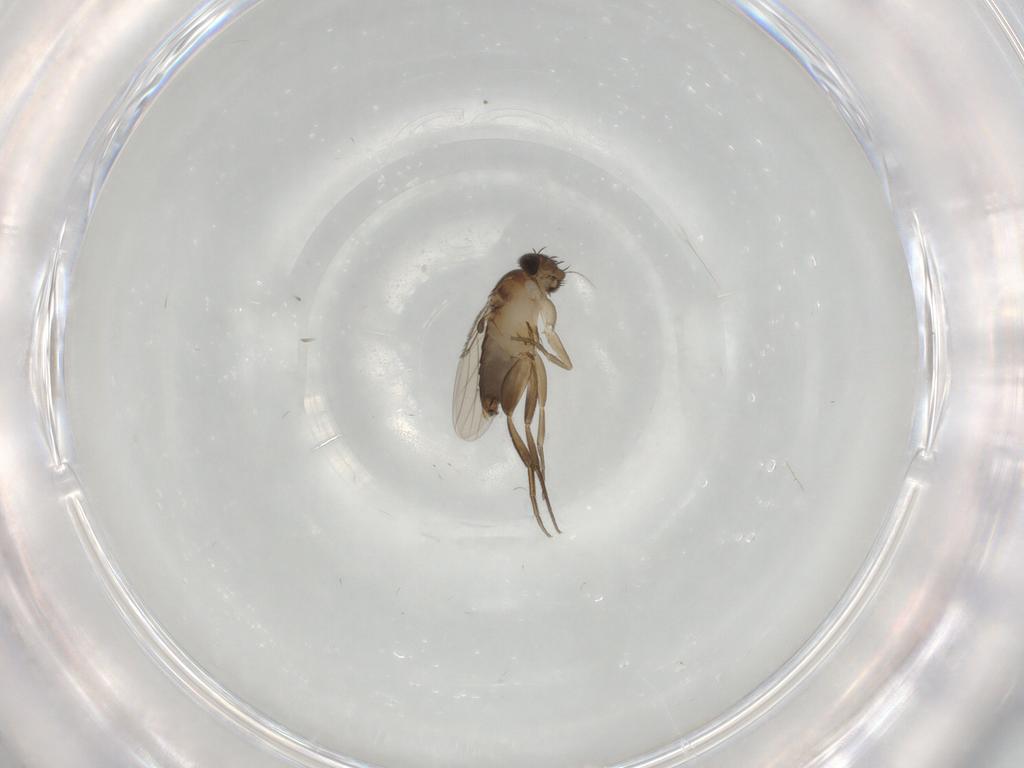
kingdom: Animalia
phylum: Arthropoda
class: Insecta
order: Diptera
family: Phoridae
